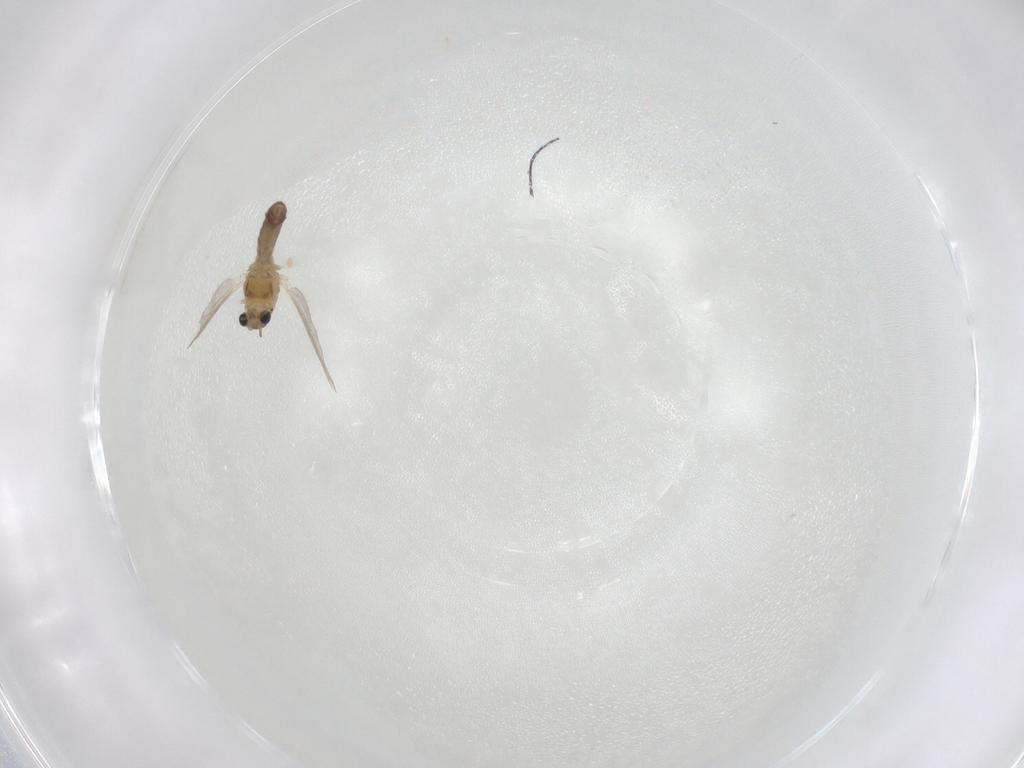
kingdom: Animalia
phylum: Arthropoda
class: Insecta
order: Diptera
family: Chironomidae
